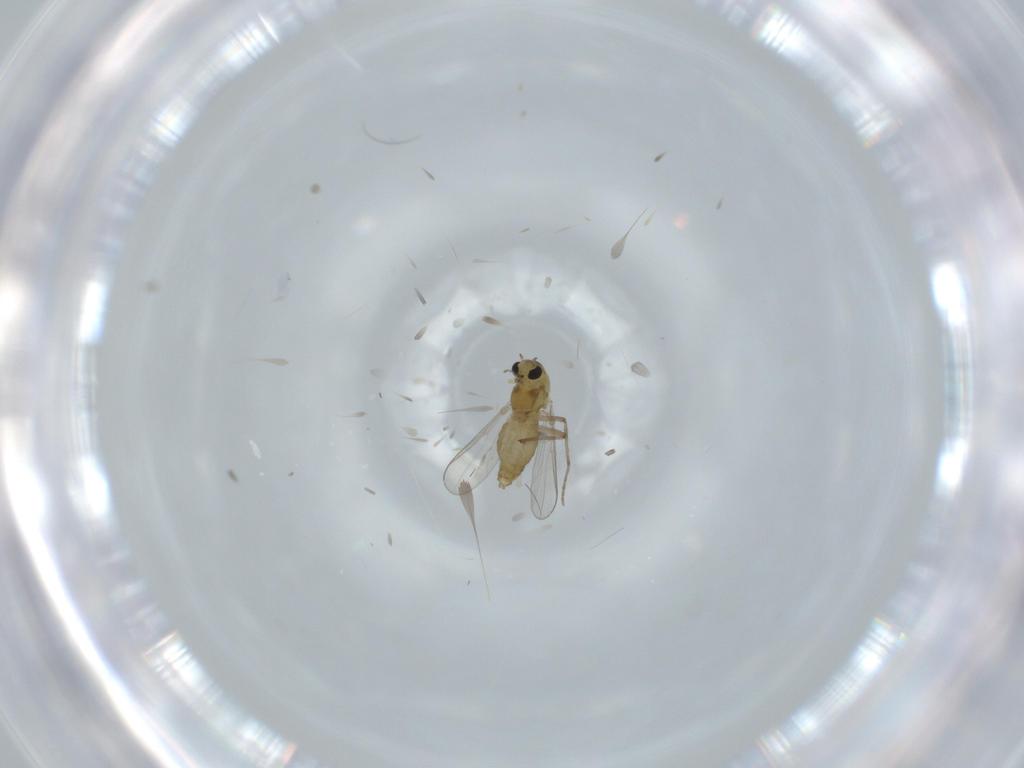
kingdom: Animalia
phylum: Arthropoda
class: Insecta
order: Diptera
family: Chironomidae
